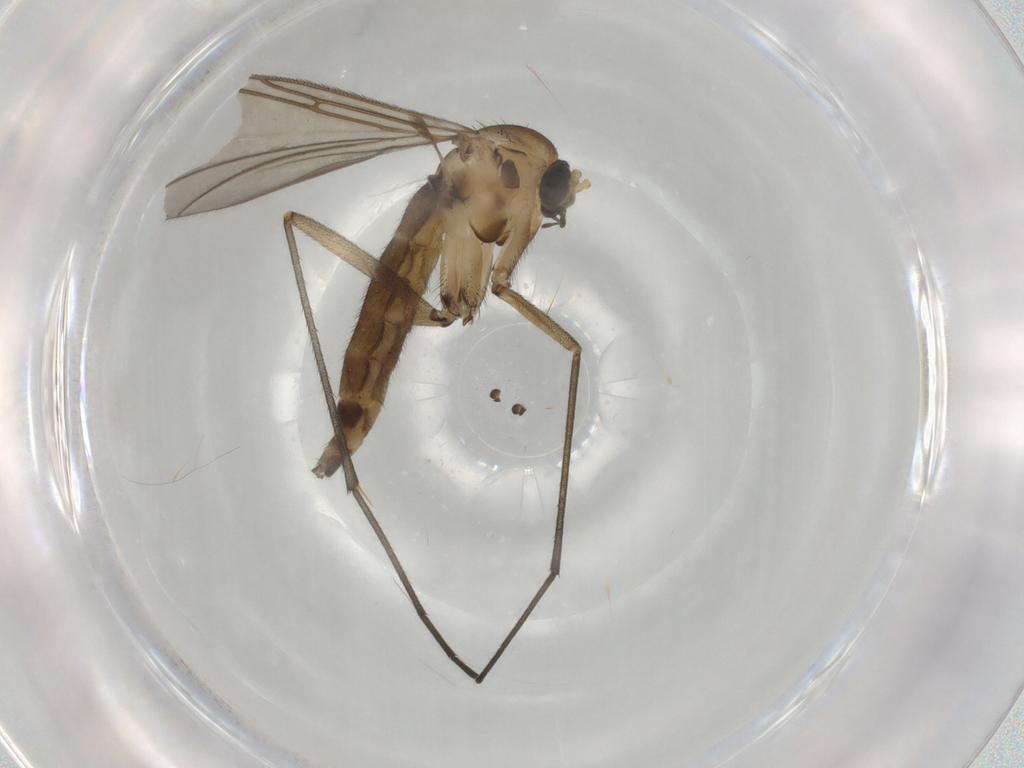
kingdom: Animalia
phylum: Arthropoda
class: Insecta
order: Diptera
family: Sciaridae
